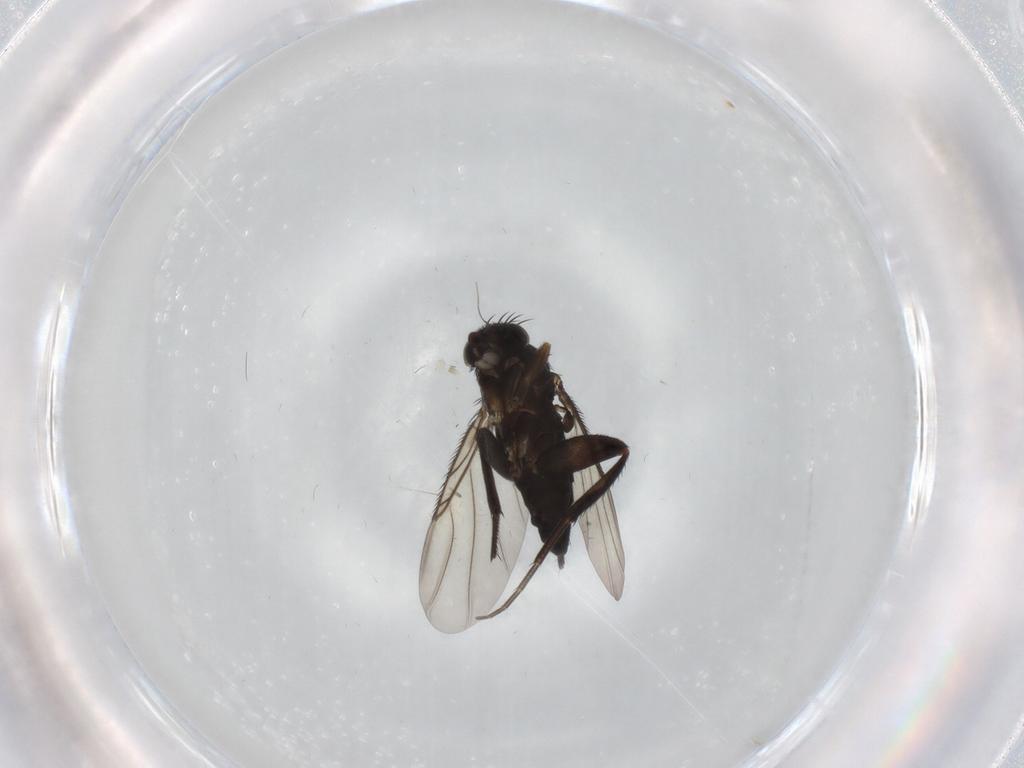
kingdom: Animalia
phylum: Arthropoda
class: Insecta
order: Diptera
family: Phoridae
